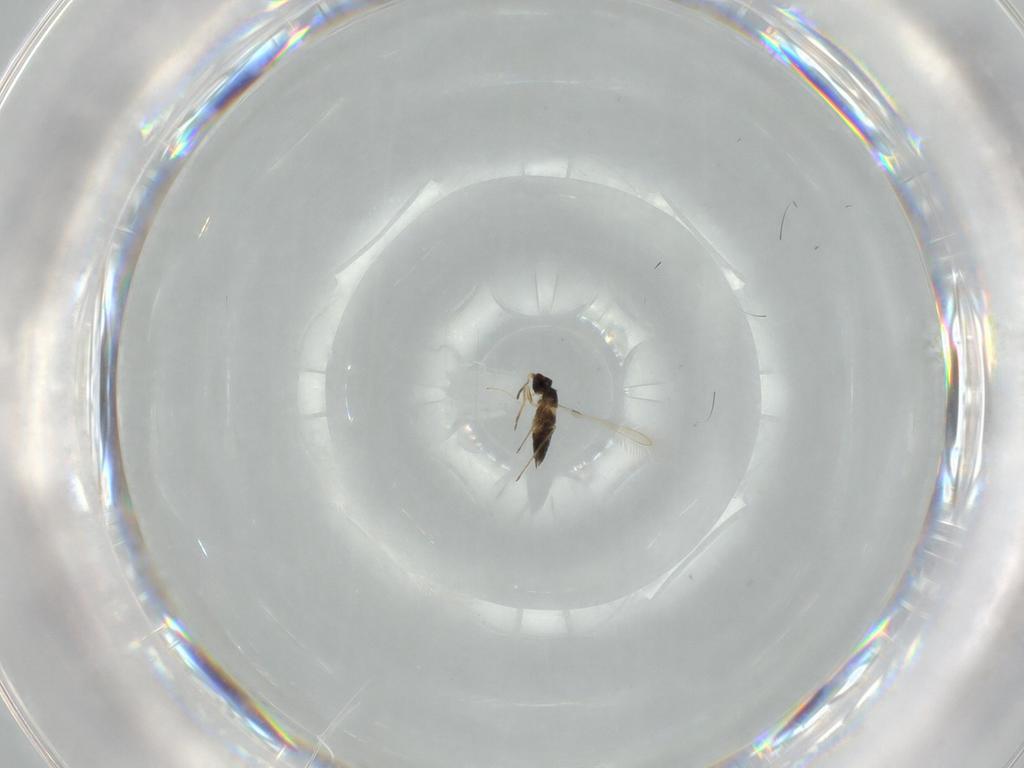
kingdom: Animalia
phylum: Arthropoda
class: Insecta
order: Hymenoptera
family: Mymaridae
